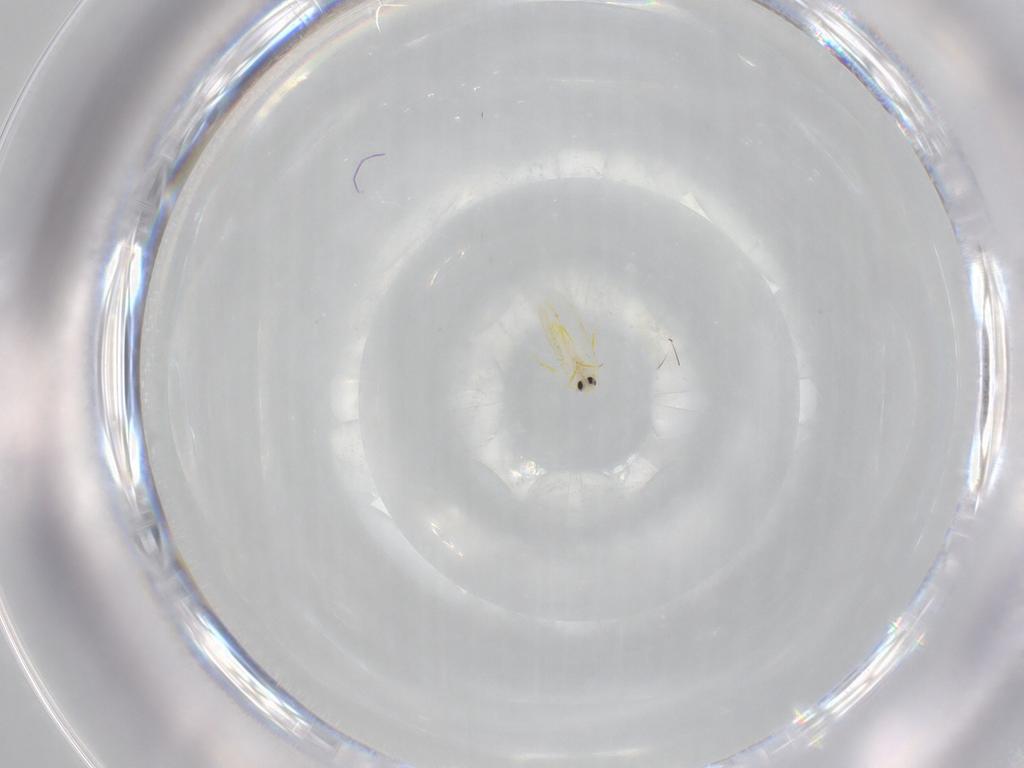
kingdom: Animalia
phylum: Arthropoda
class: Insecta
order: Hemiptera
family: Aleyrodidae
